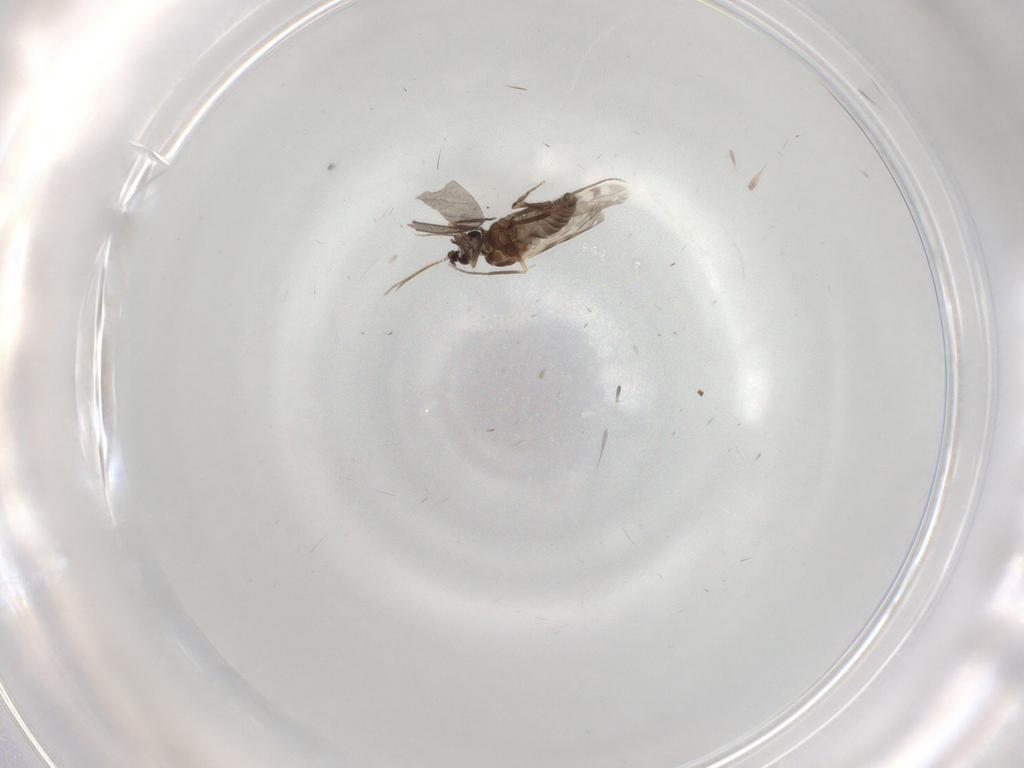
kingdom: Animalia
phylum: Arthropoda
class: Insecta
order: Diptera
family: Ceratopogonidae
